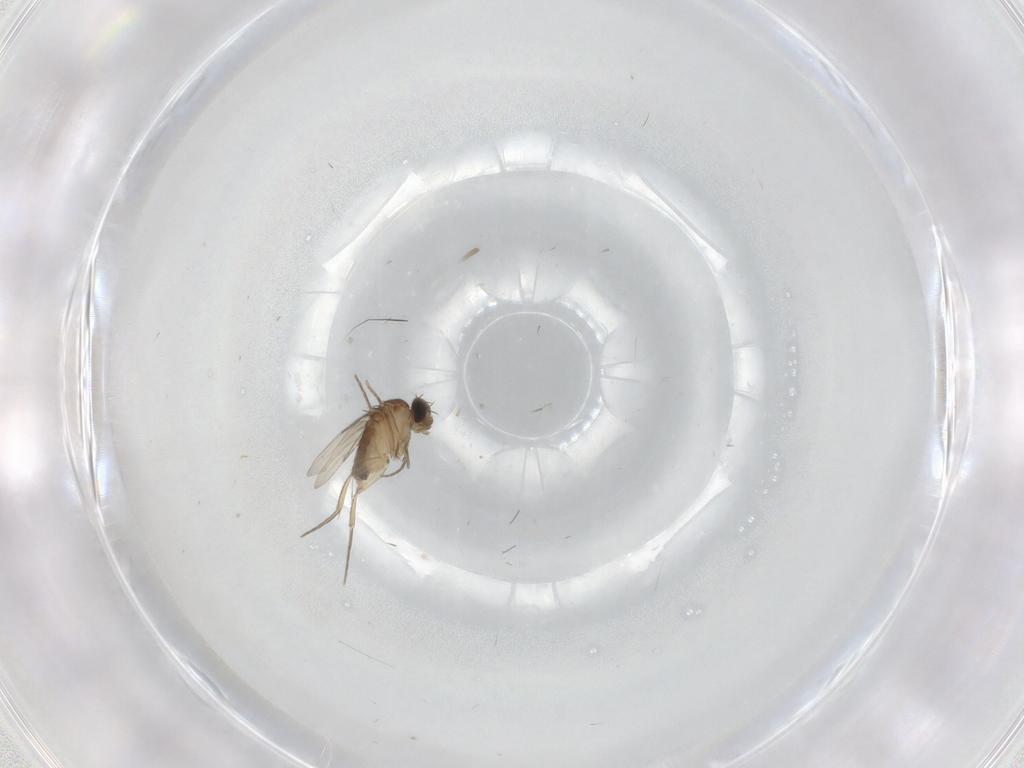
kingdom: Animalia
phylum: Arthropoda
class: Insecta
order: Diptera
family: Phoridae
